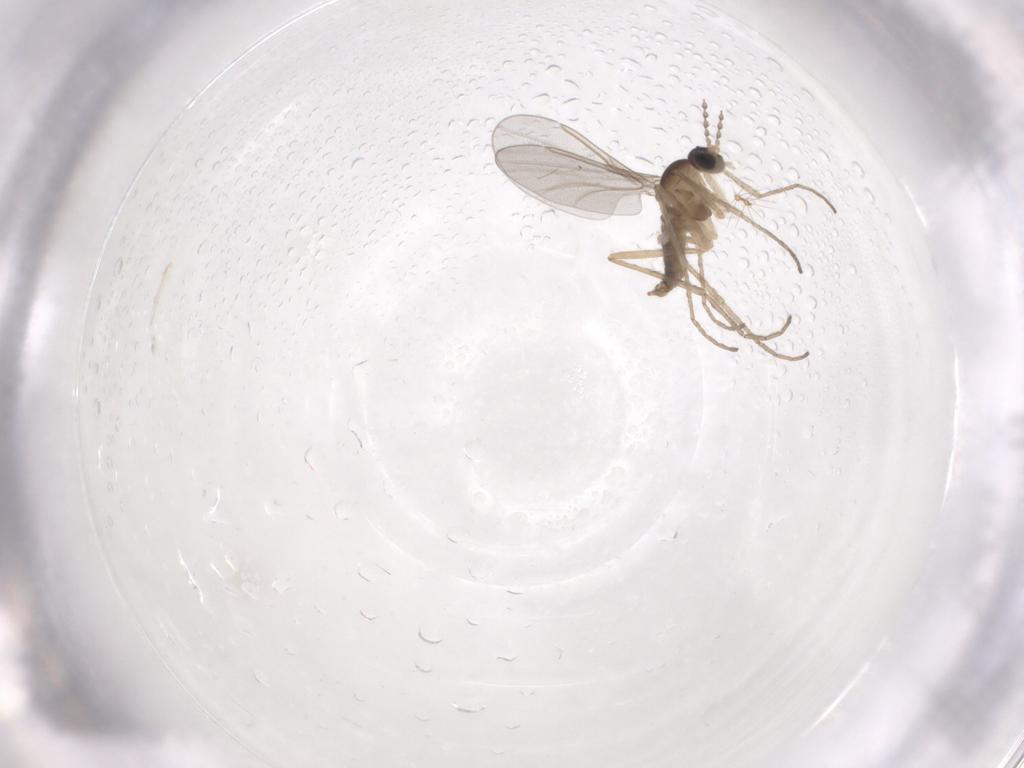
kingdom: Animalia
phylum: Arthropoda
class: Insecta
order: Diptera
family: Cecidomyiidae
